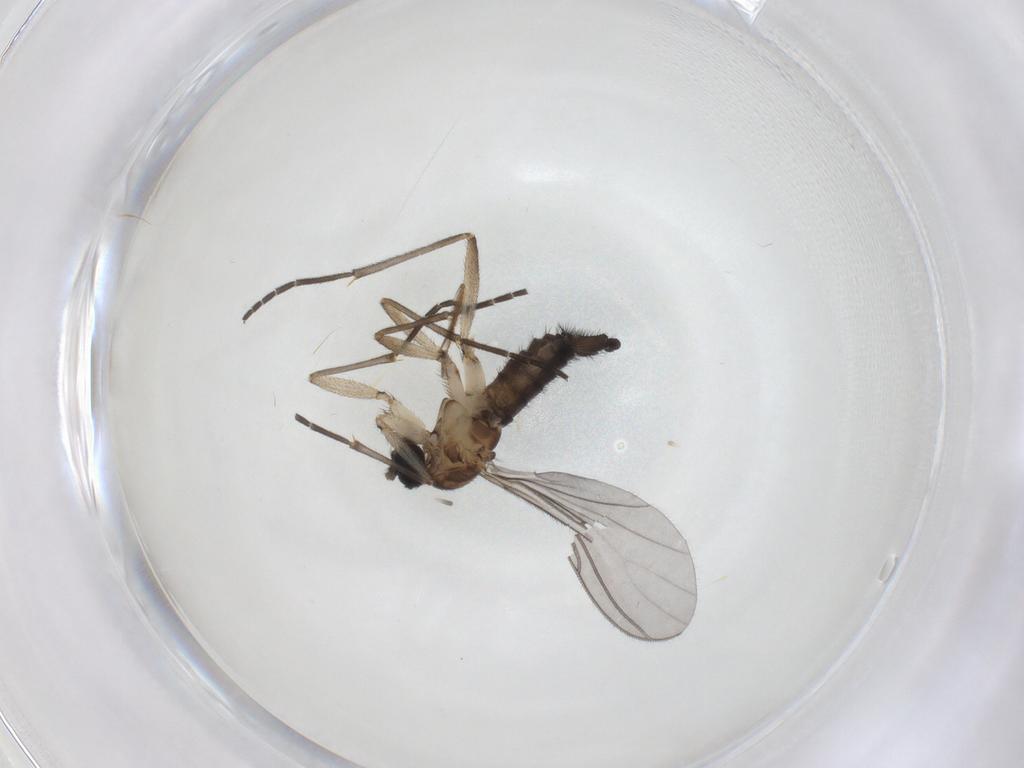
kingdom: Animalia
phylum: Arthropoda
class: Insecta
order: Diptera
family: Sciaridae
